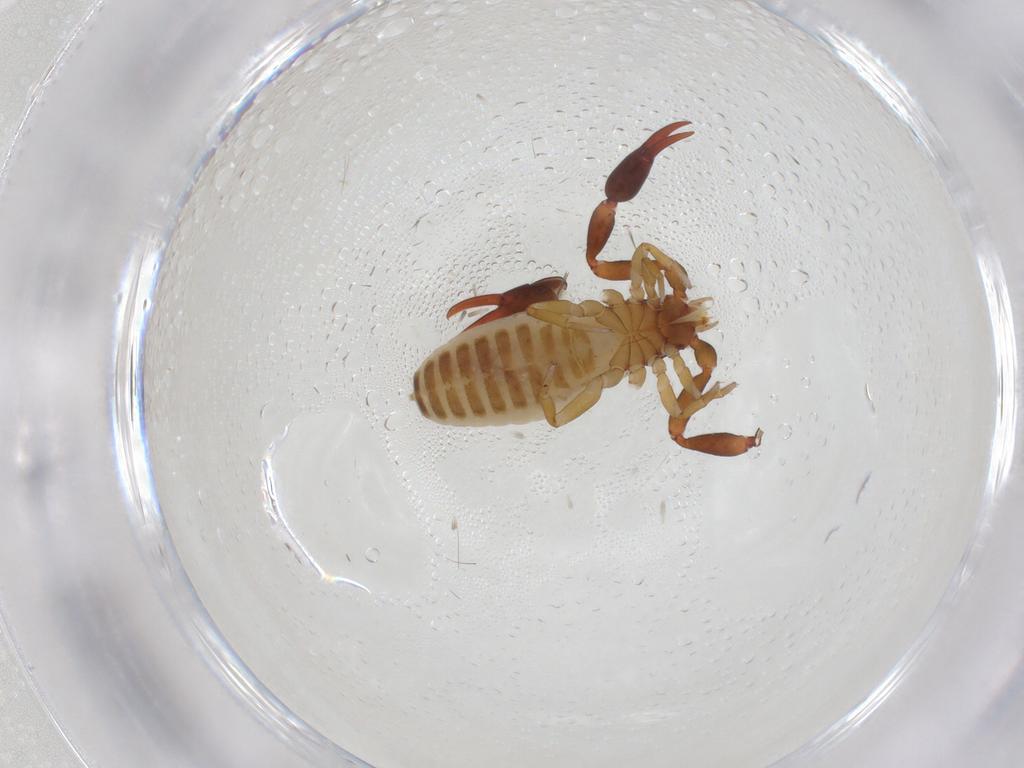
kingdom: Animalia
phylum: Arthropoda
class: Arachnida
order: Pseudoscorpiones
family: Withiidae
